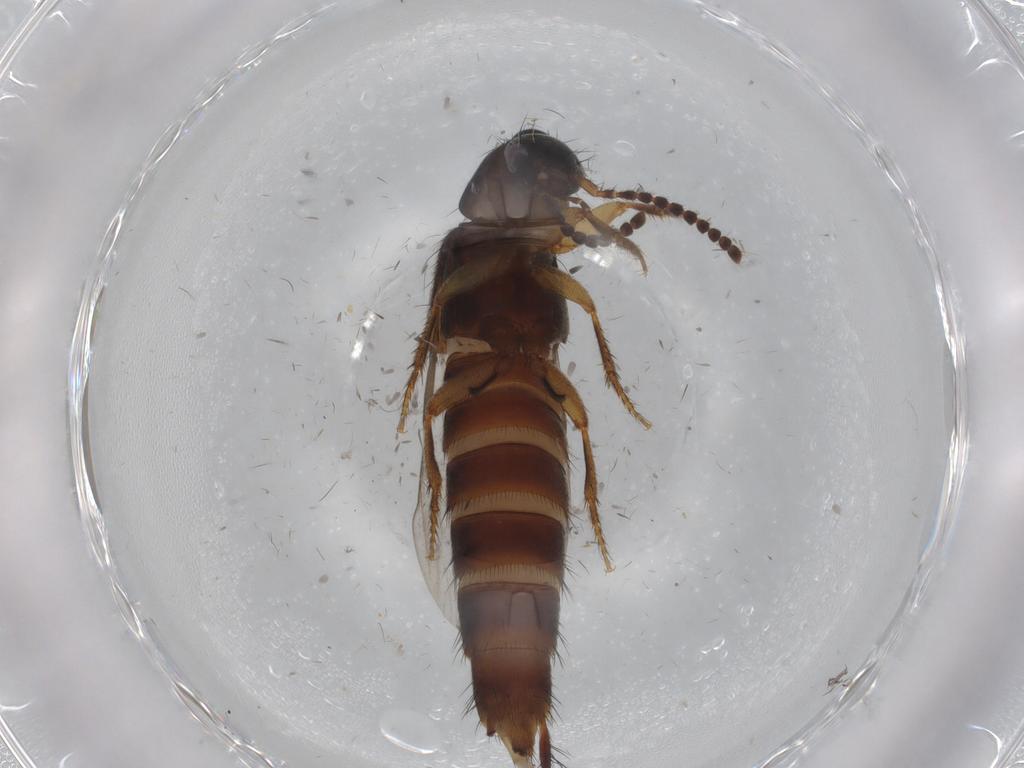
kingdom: Animalia
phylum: Arthropoda
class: Insecta
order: Coleoptera
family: Staphylinidae
